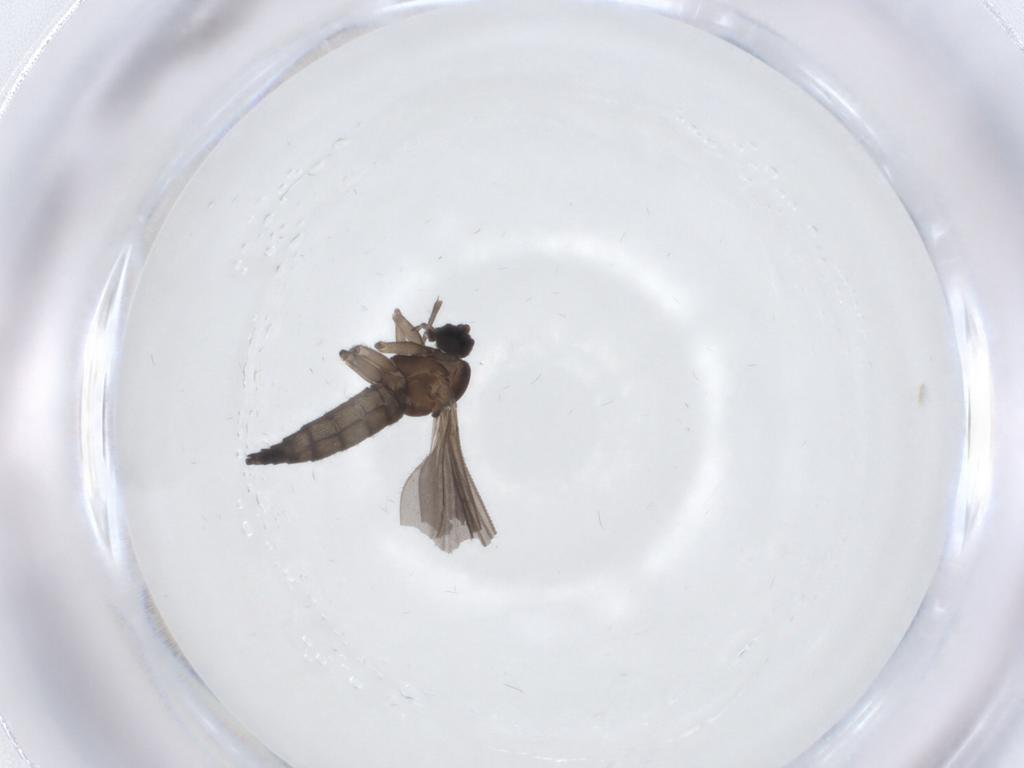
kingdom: Animalia
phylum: Arthropoda
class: Insecta
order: Diptera
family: Sciaridae
